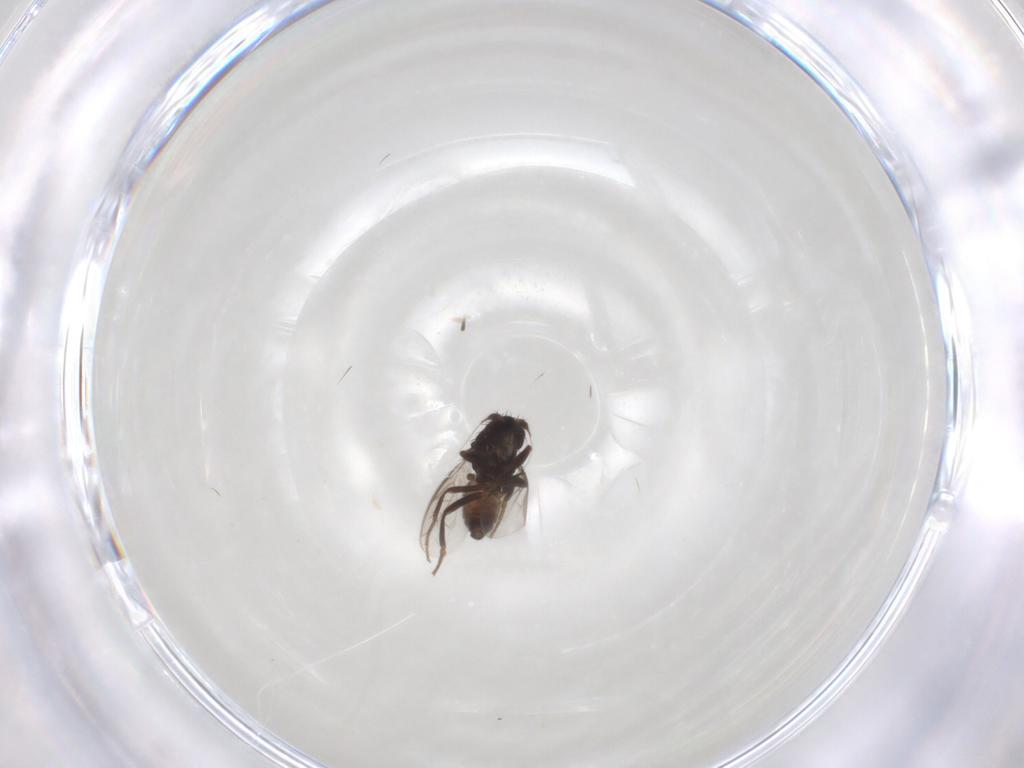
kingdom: Animalia
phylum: Arthropoda
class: Insecta
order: Diptera
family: Sphaeroceridae
